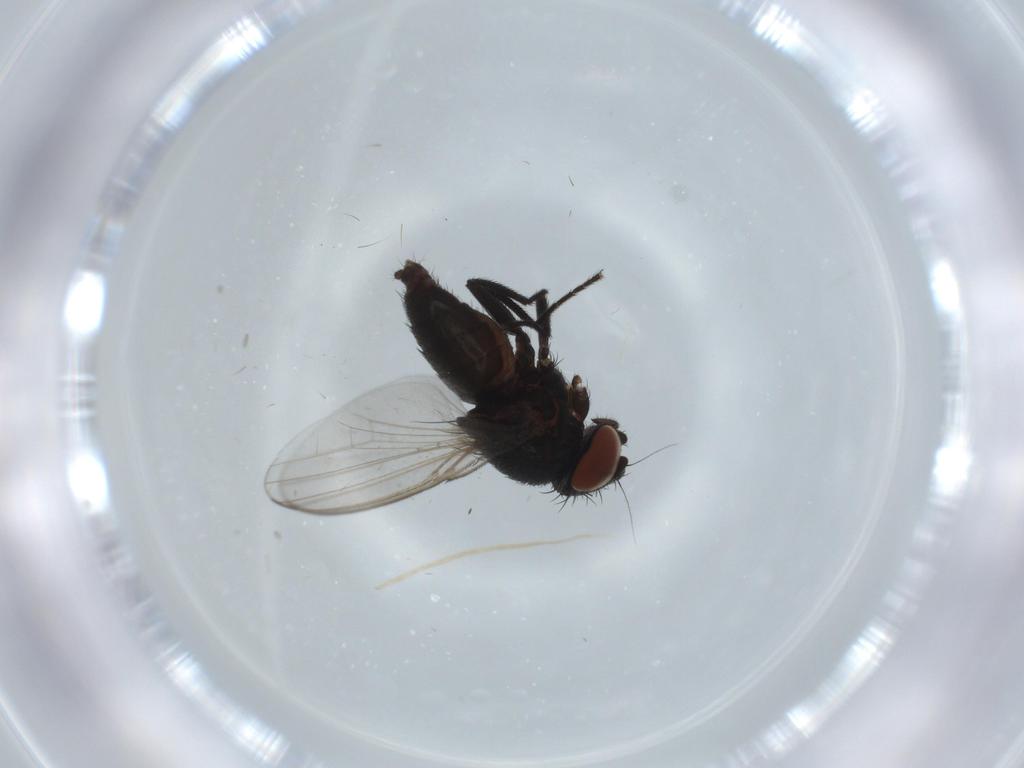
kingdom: Animalia
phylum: Arthropoda
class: Insecta
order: Diptera
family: Milichiidae
